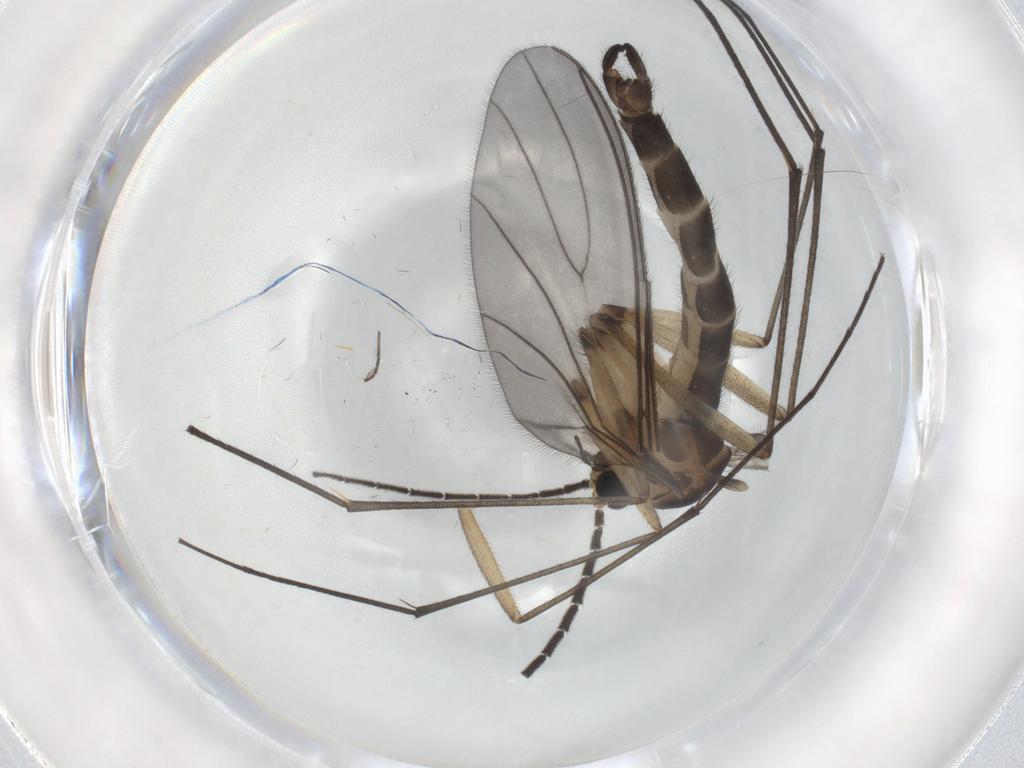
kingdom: Animalia
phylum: Arthropoda
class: Insecta
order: Diptera
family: Sciaridae
